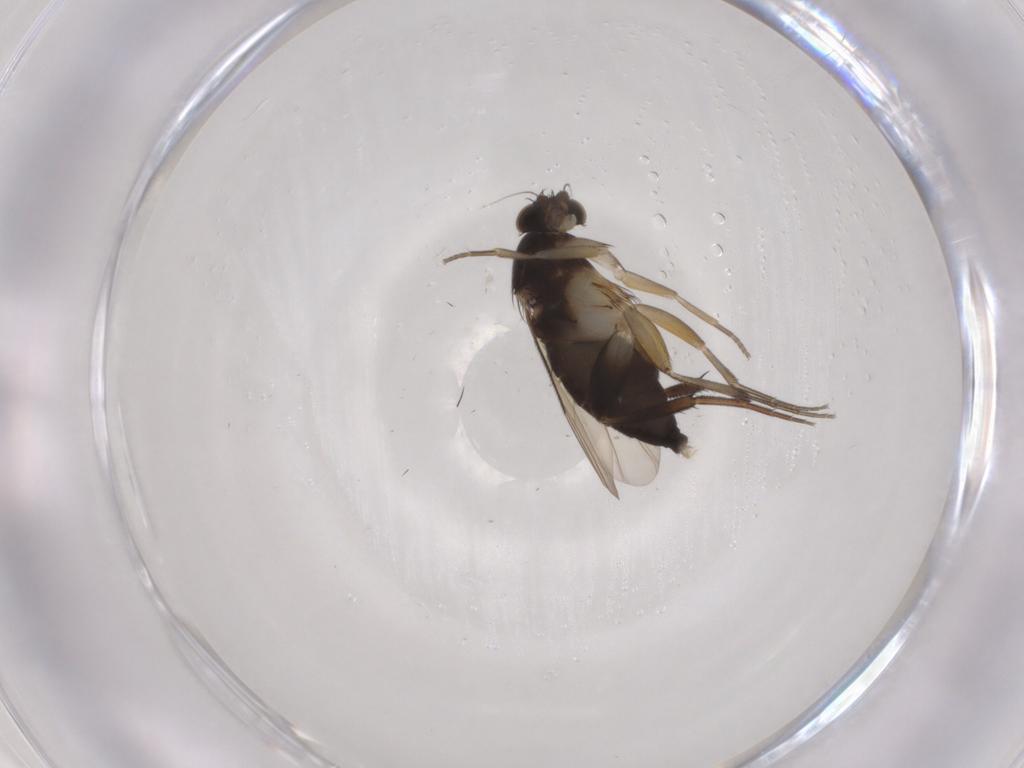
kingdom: Animalia
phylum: Arthropoda
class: Insecta
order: Diptera
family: Phoridae
